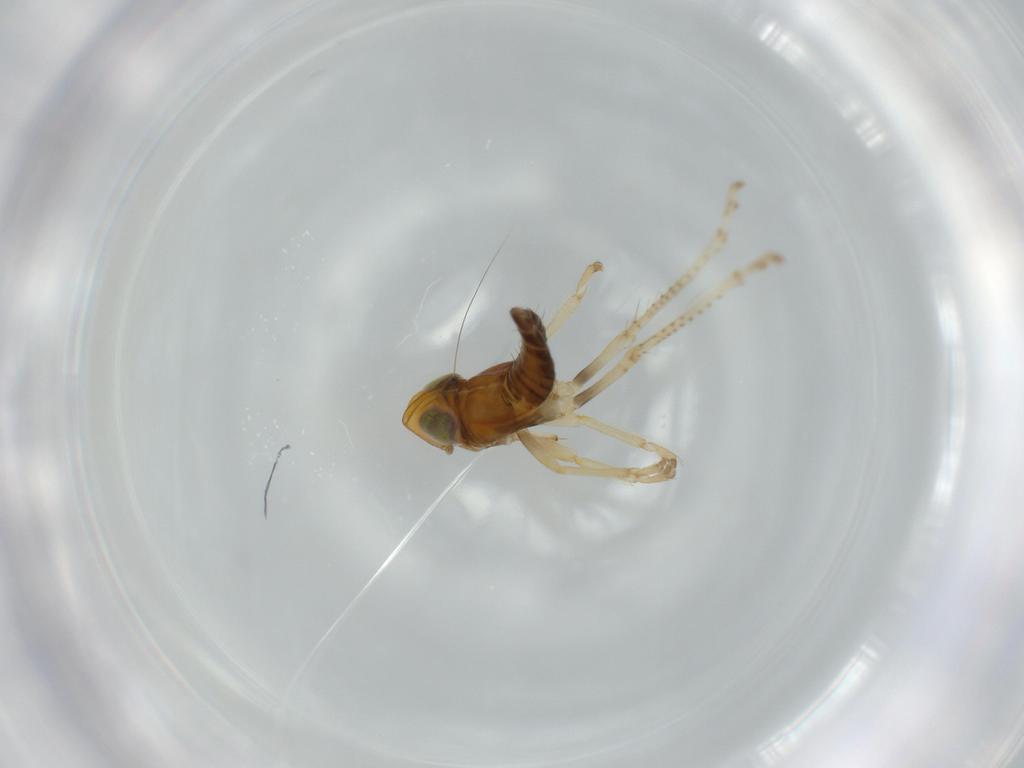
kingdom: Animalia
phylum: Arthropoda
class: Insecta
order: Hemiptera
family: Cicadellidae
